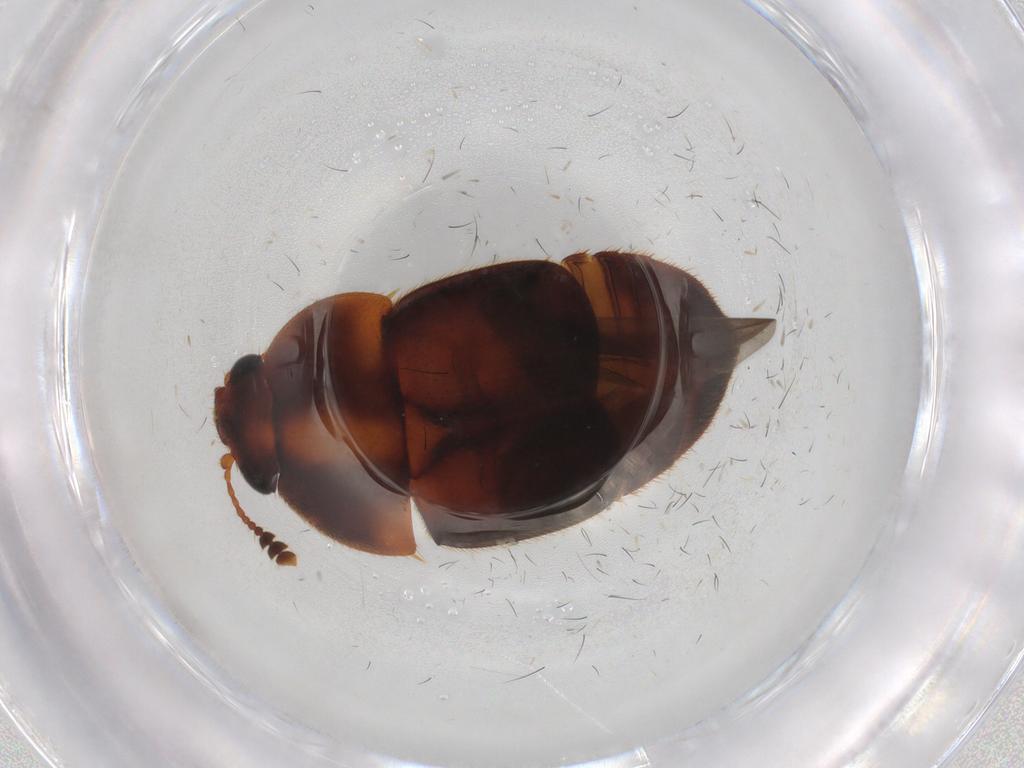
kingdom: Animalia
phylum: Arthropoda
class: Insecta
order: Coleoptera
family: Nitidulidae
